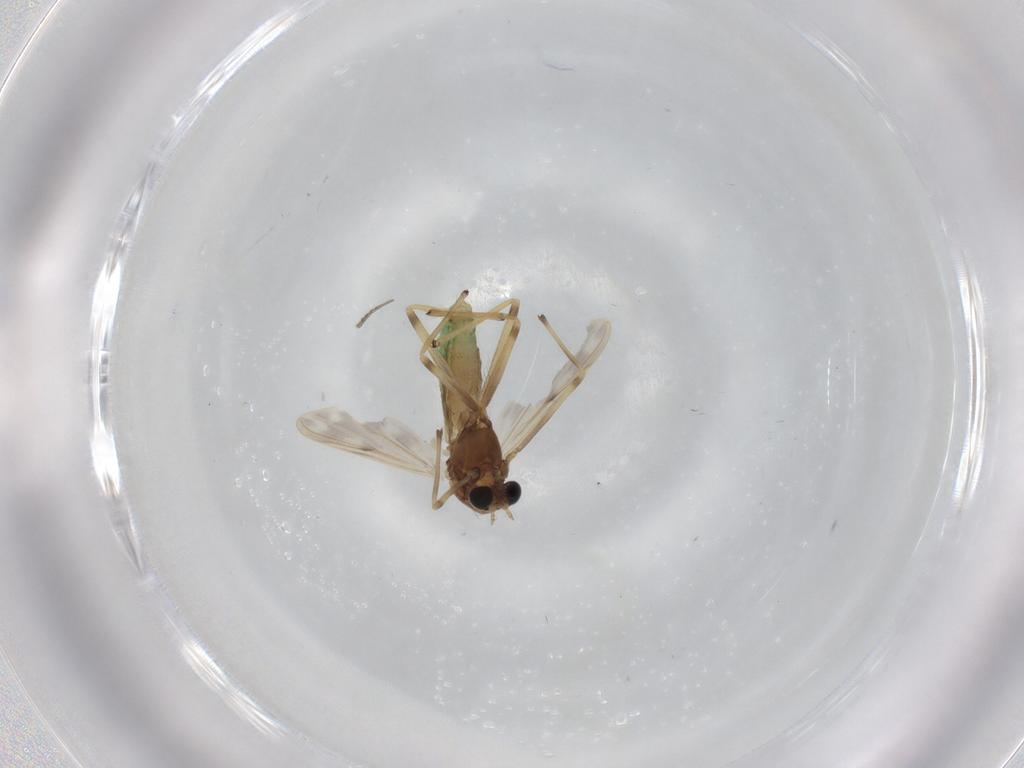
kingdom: Animalia
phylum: Arthropoda
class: Insecta
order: Diptera
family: Chironomidae
